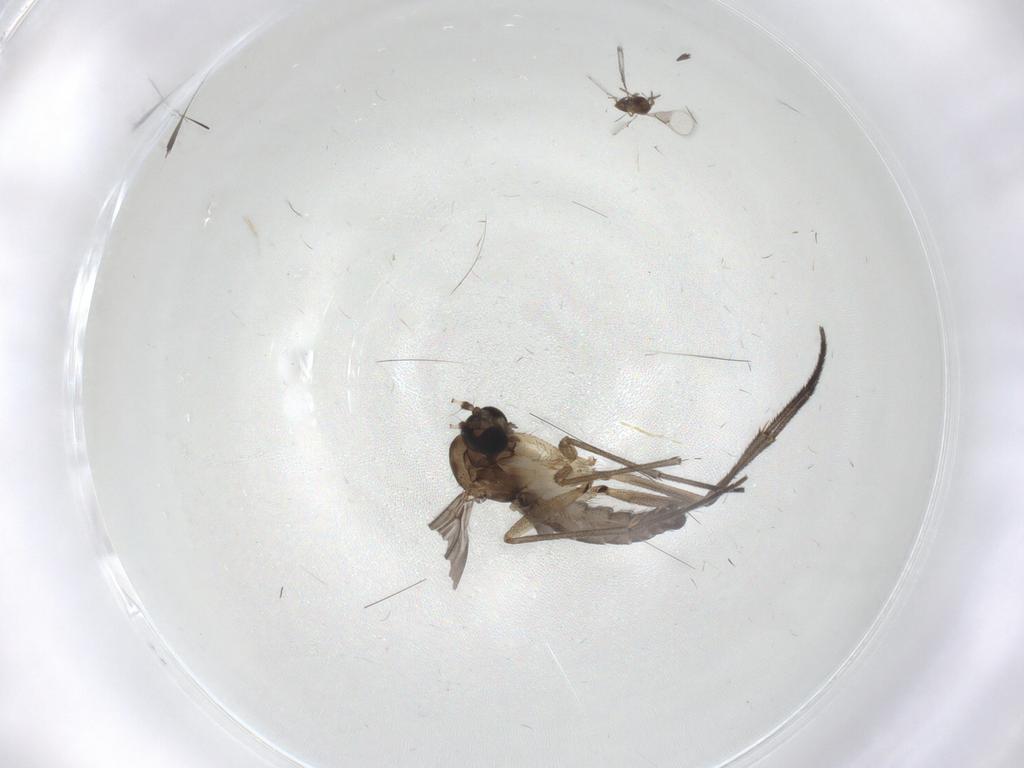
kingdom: Animalia
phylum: Arthropoda
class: Insecta
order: Diptera
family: Sciaridae
